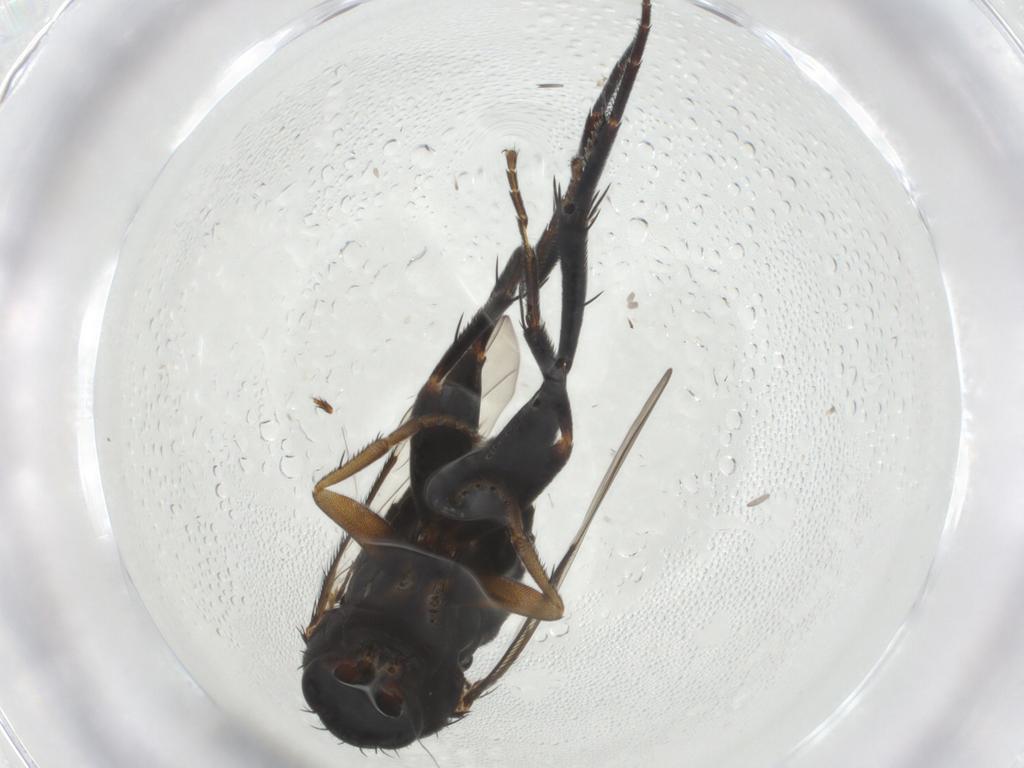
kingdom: Animalia
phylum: Arthropoda
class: Insecta
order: Diptera
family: Phoridae
